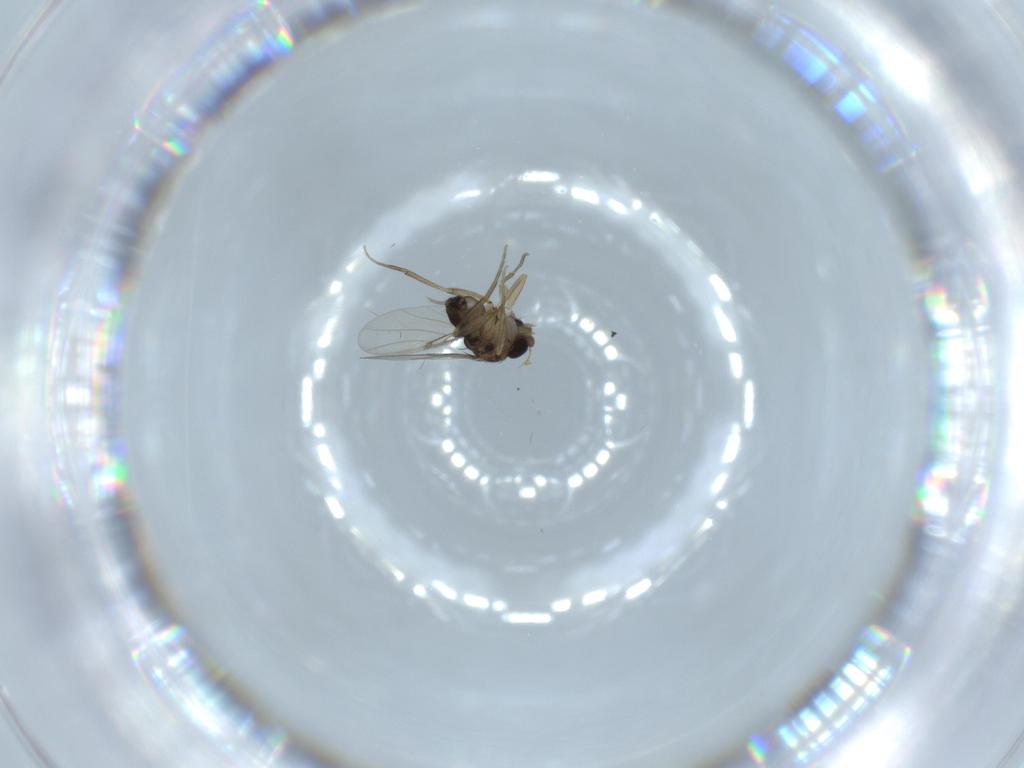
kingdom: Animalia
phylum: Arthropoda
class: Insecta
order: Diptera
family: Phoridae
